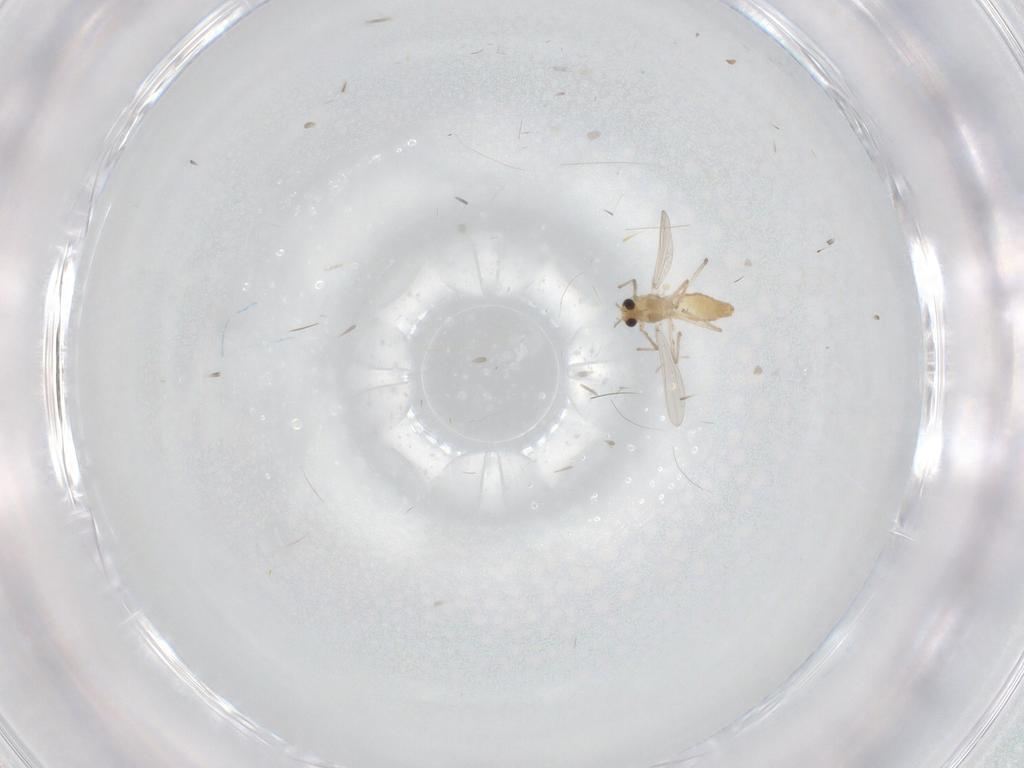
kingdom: Animalia
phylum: Arthropoda
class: Insecta
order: Diptera
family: Chironomidae
